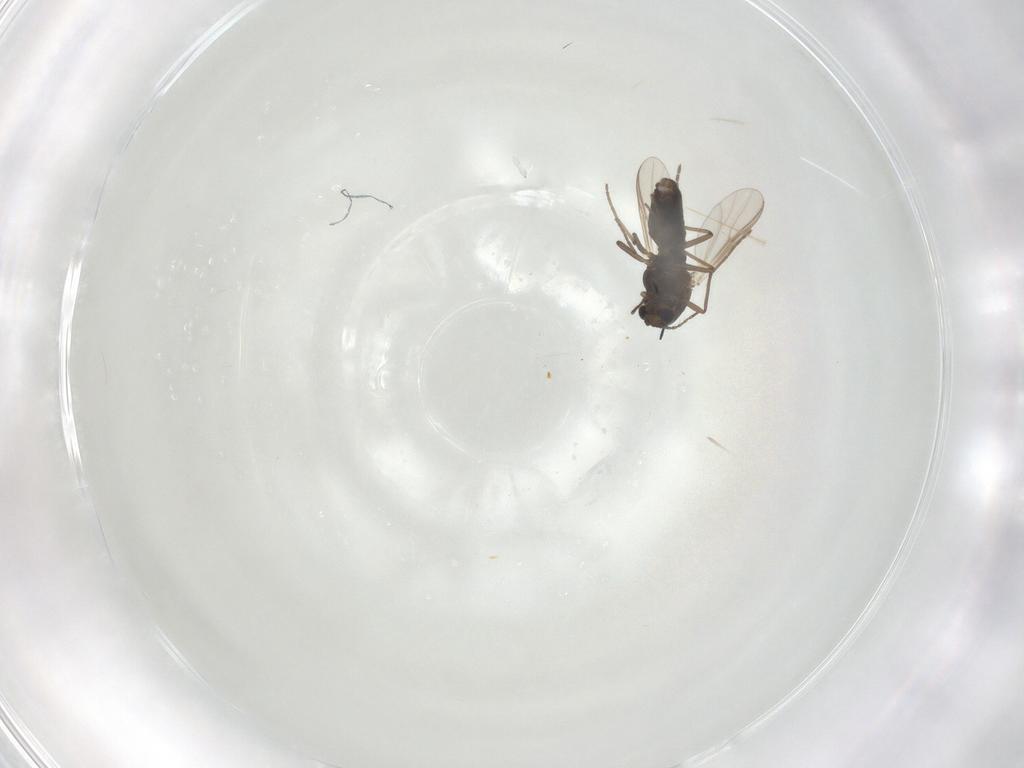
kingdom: Animalia
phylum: Arthropoda
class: Insecta
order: Diptera
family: Chironomidae
